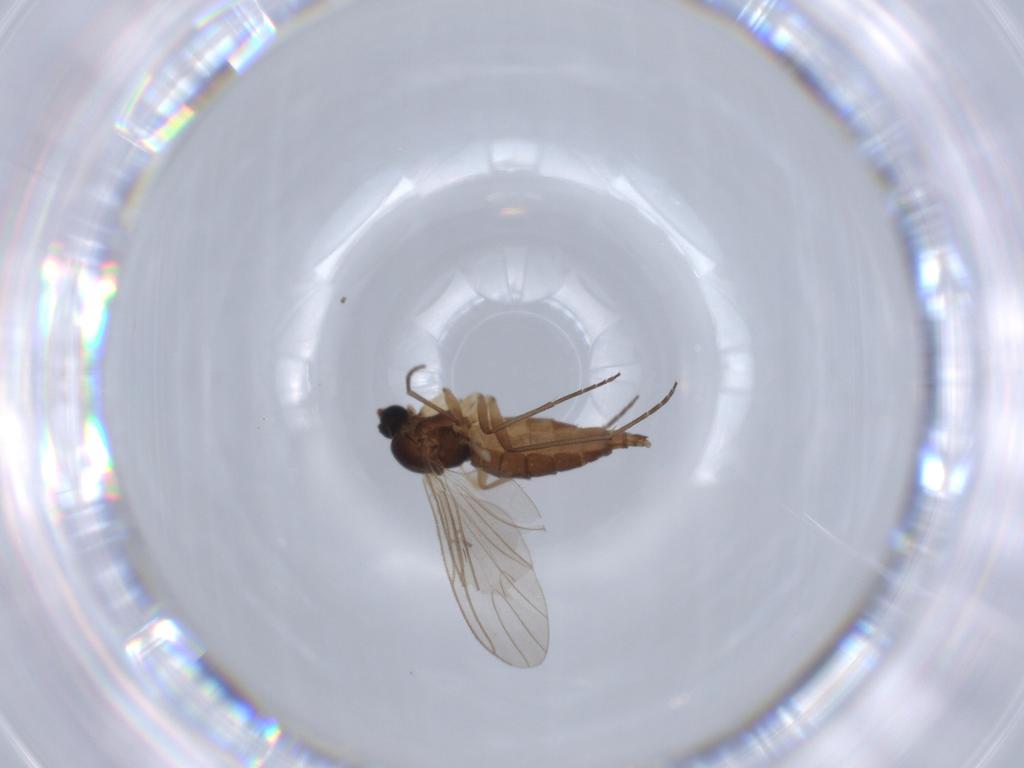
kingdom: Animalia
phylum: Arthropoda
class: Insecta
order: Diptera
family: Sciaridae
